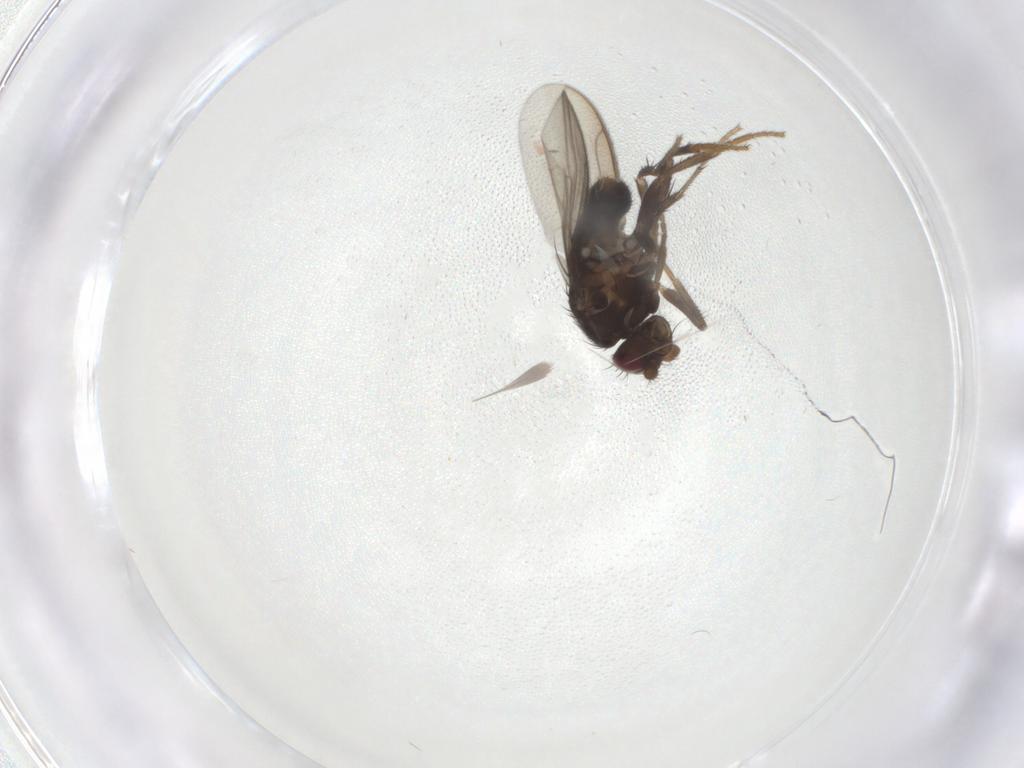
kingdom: Animalia
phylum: Arthropoda
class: Insecta
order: Diptera
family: Sphaeroceridae
